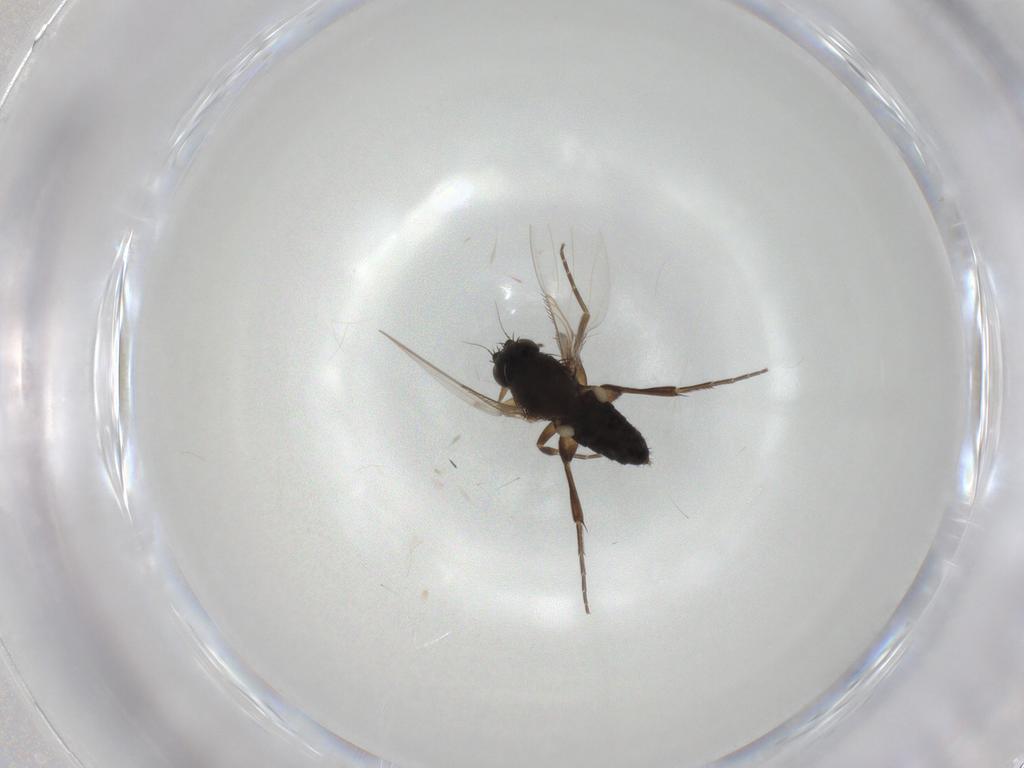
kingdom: Animalia
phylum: Arthropoda
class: Insecta
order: Diptera
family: Phoridae
